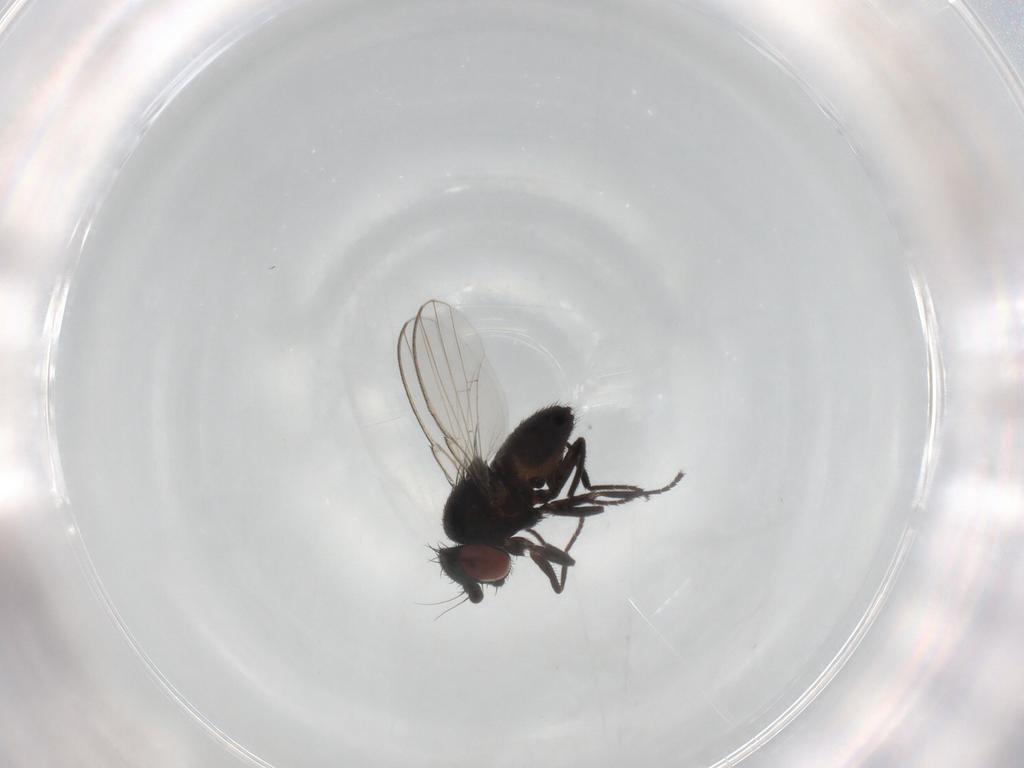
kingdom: Animalia
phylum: Arthropoda
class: Insecta
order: Diptera
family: Milichiidae
